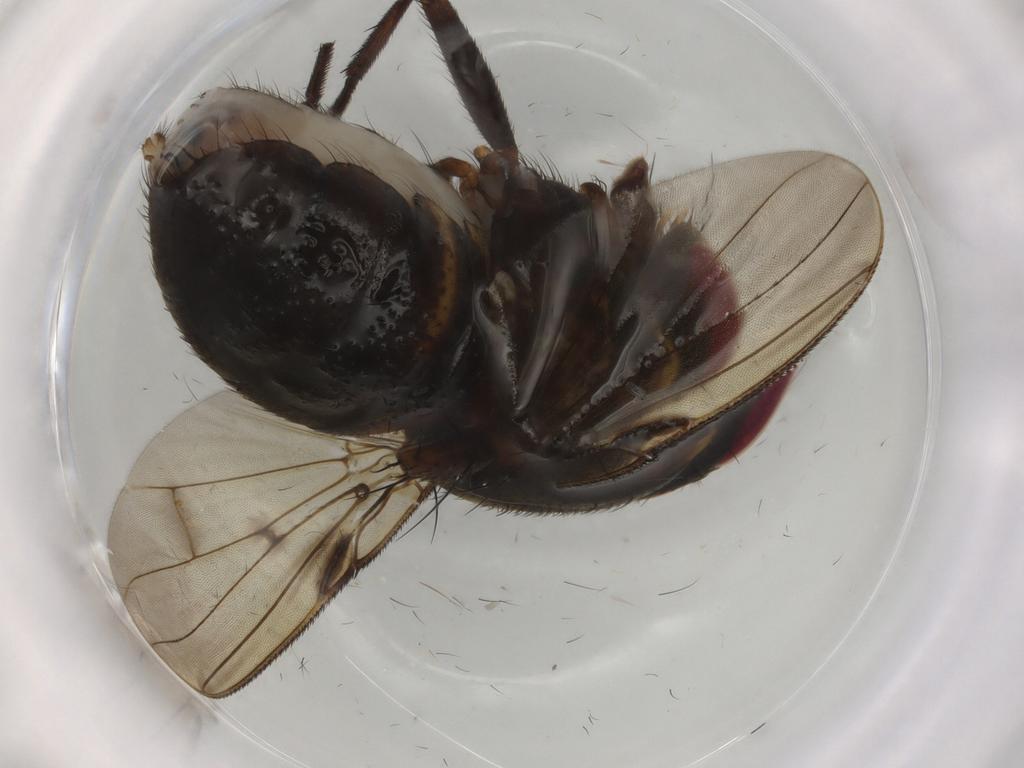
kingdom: Animalia
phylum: Arthropoda
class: Insecta
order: Diptera
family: Muscidae
